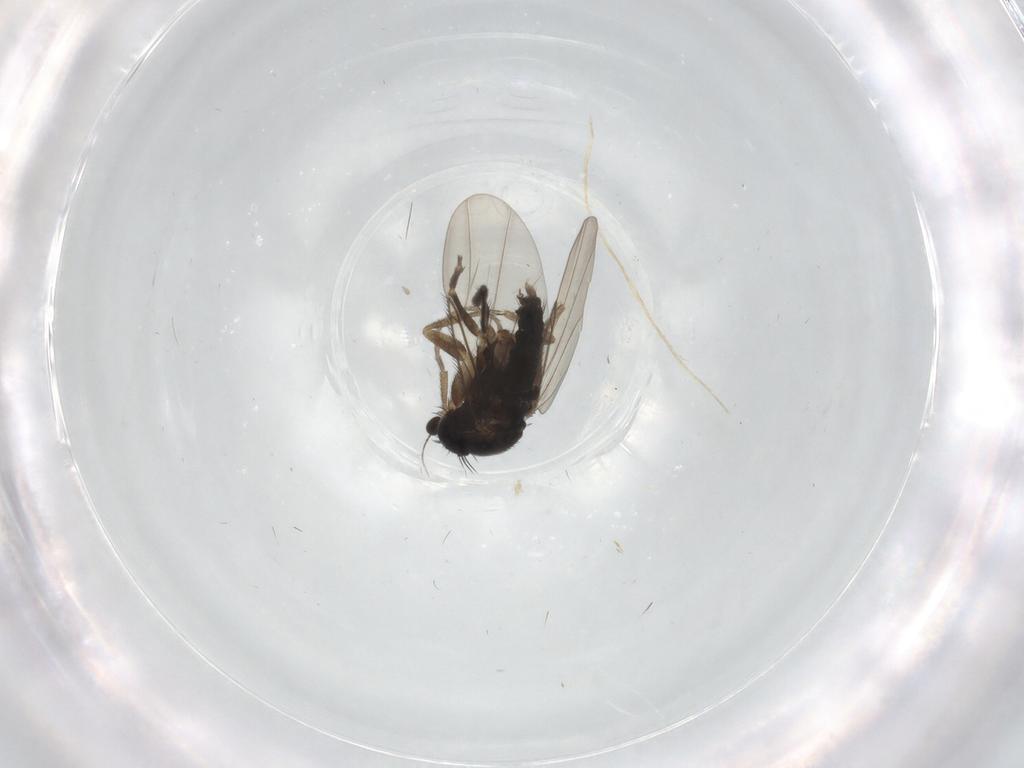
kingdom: Animalia
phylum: Arthropoda
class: Insecta
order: Diptera
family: Phoridae
